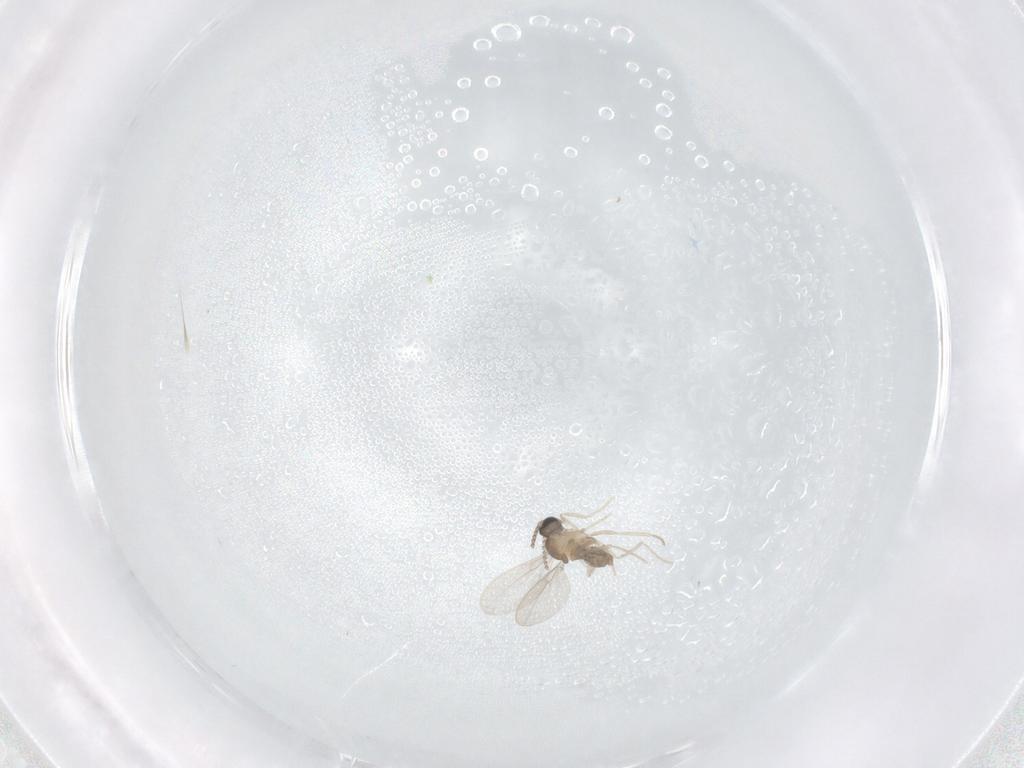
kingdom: Animalia
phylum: Arthropoda
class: Insecta
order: Diptera
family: Cecidomyiidae
